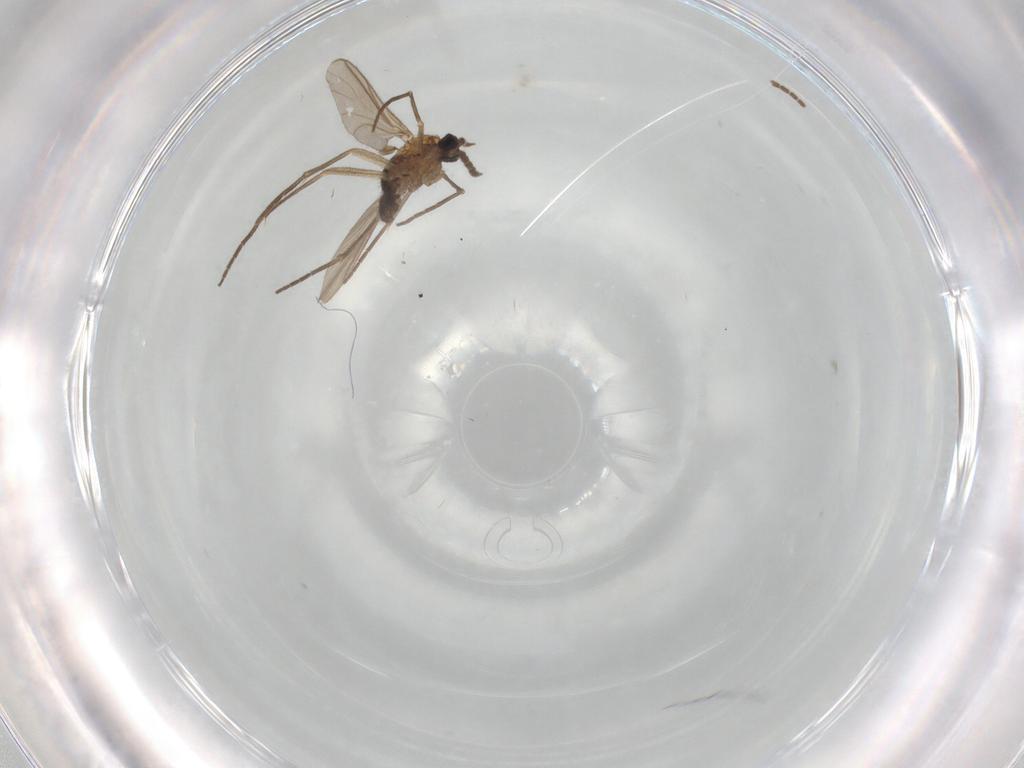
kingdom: Animalia
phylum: Arthropoda
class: Insecta
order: Diptera
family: Sciaridae
